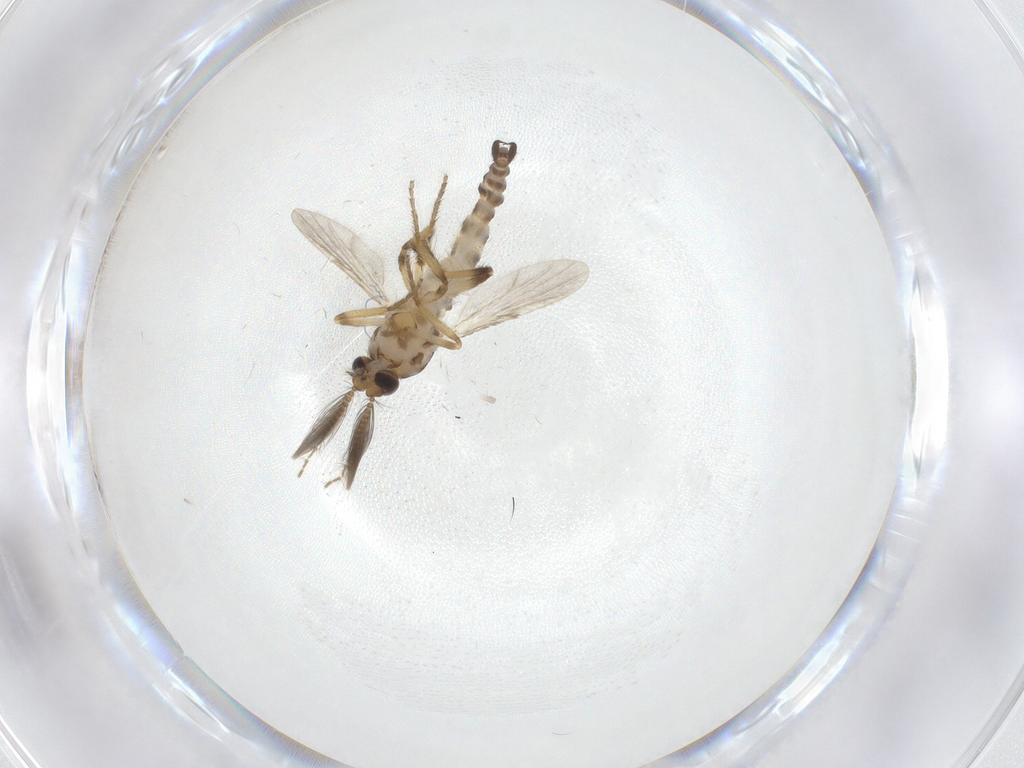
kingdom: Animalia
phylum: Arthropoda
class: Insecta
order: Diptera
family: Ceratopogonidae
